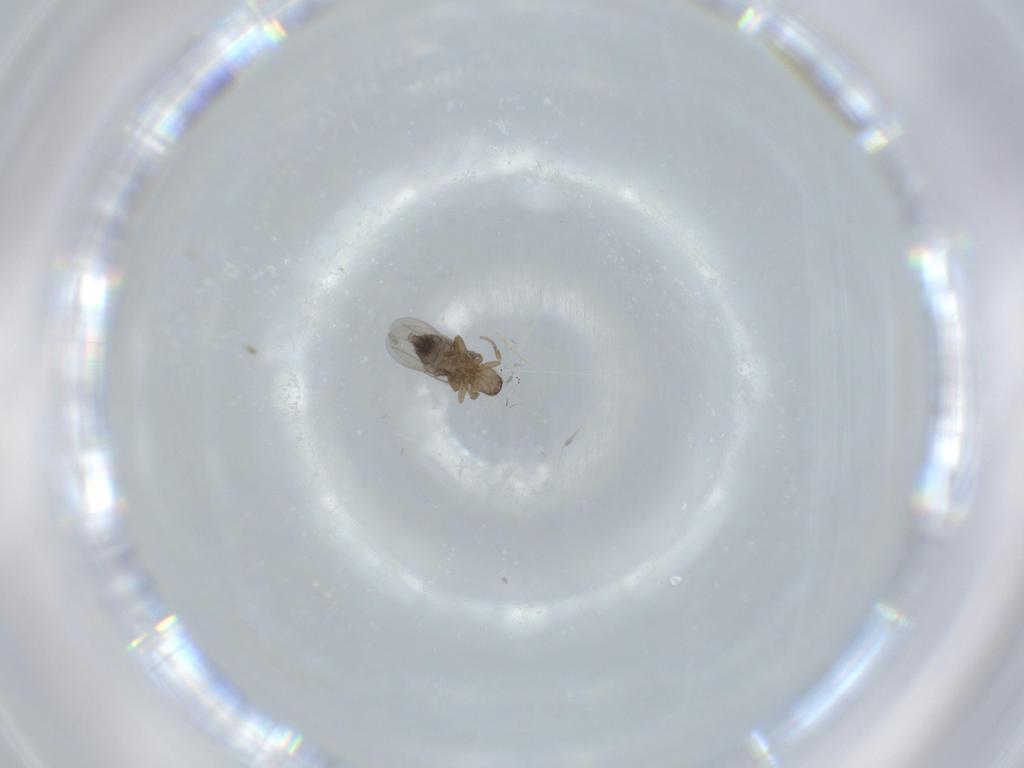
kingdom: Animalia
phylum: Arthropoda
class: Insecta
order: Diptera
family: Phoridae
